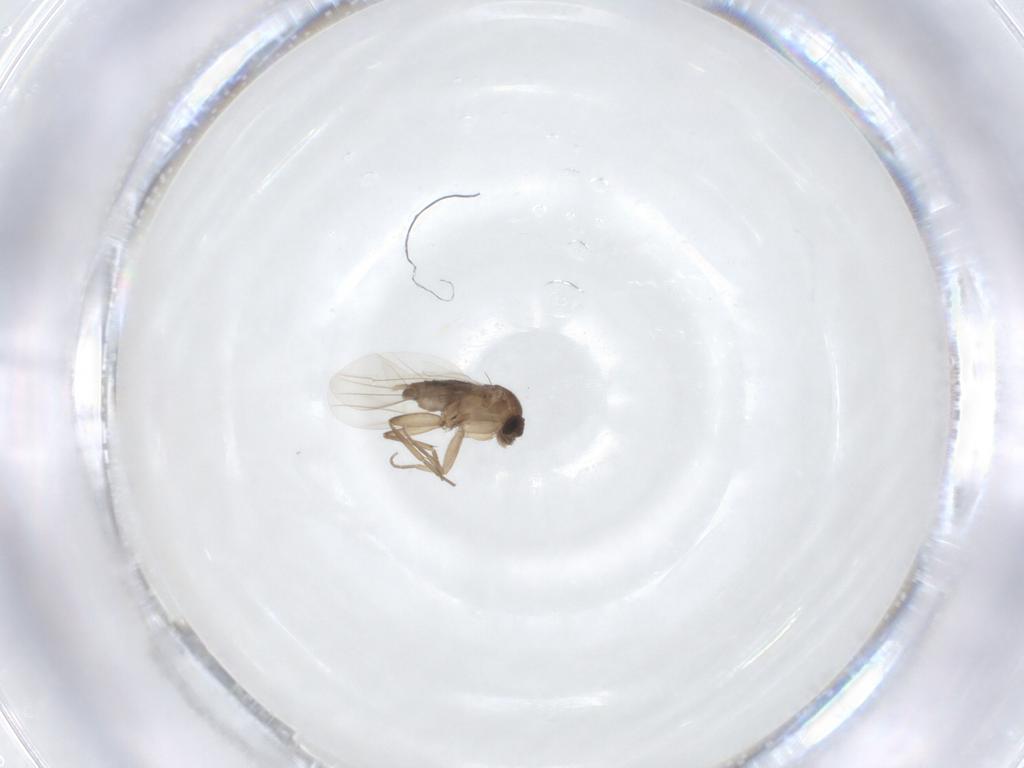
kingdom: Animalia
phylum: Arthropoda
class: Insecta
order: Diptera
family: Phoridae
